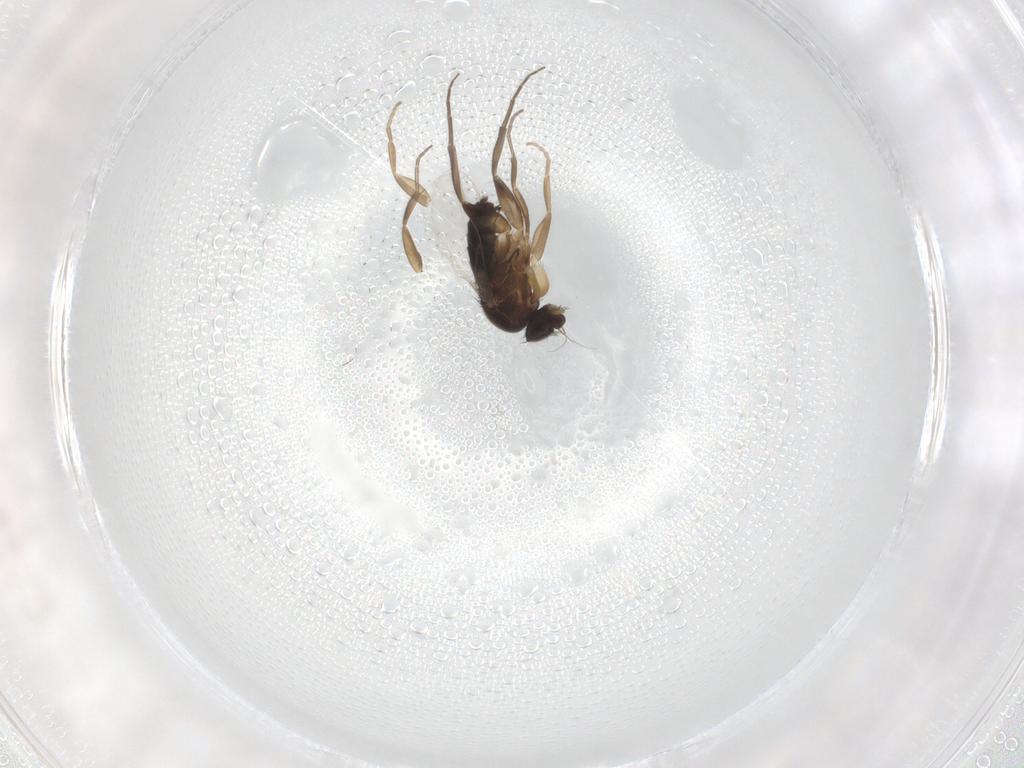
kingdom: Animalia
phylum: Arthropoda
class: Insecta
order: Diptera
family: Phoridae
